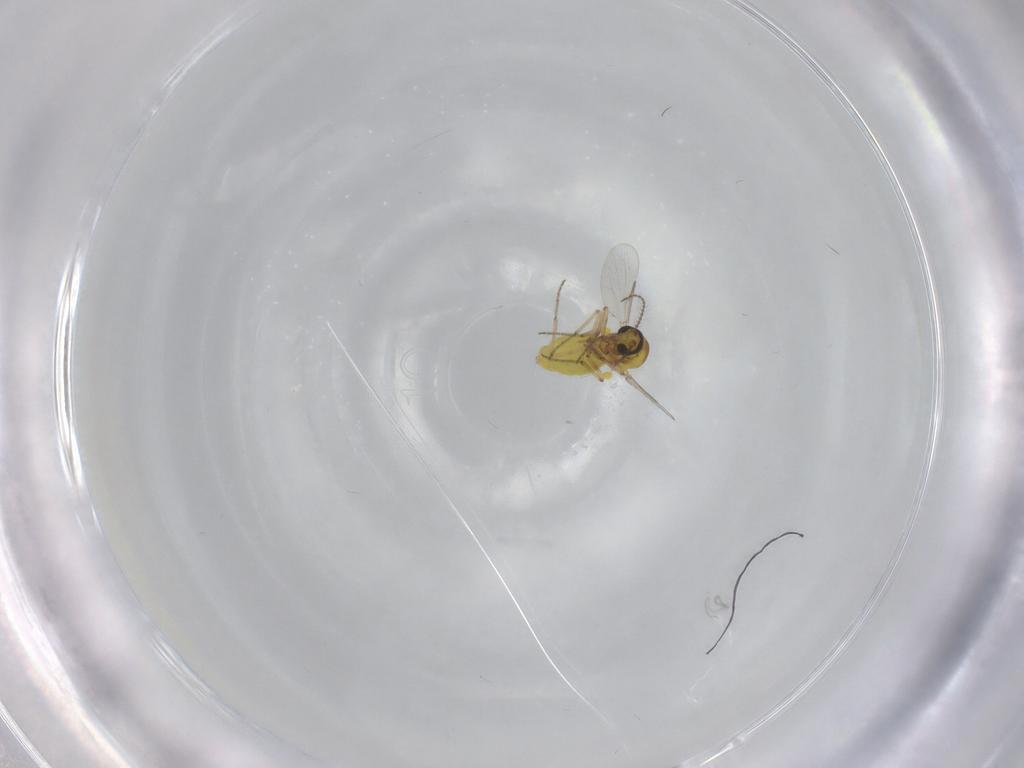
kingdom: Animalia
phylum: Arthropoda
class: Insecta
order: Diptera
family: Ceratopogonidae
